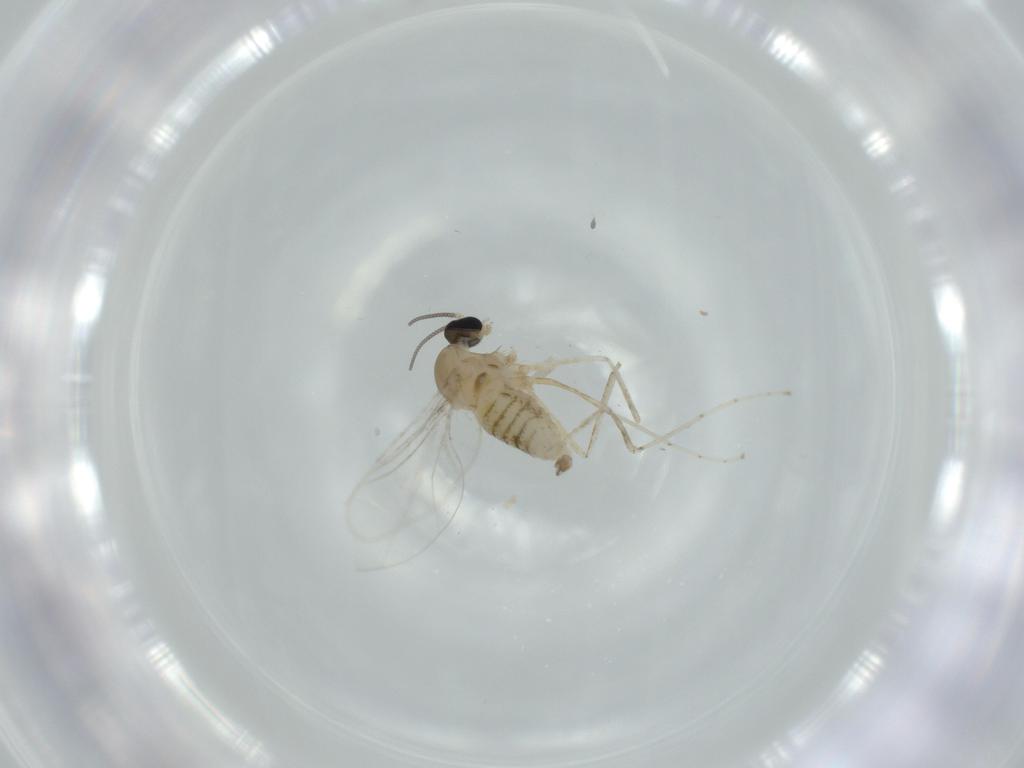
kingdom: Animalia
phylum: Arthropoda
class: Insecta
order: Diptera
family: Cecidomyiidae
